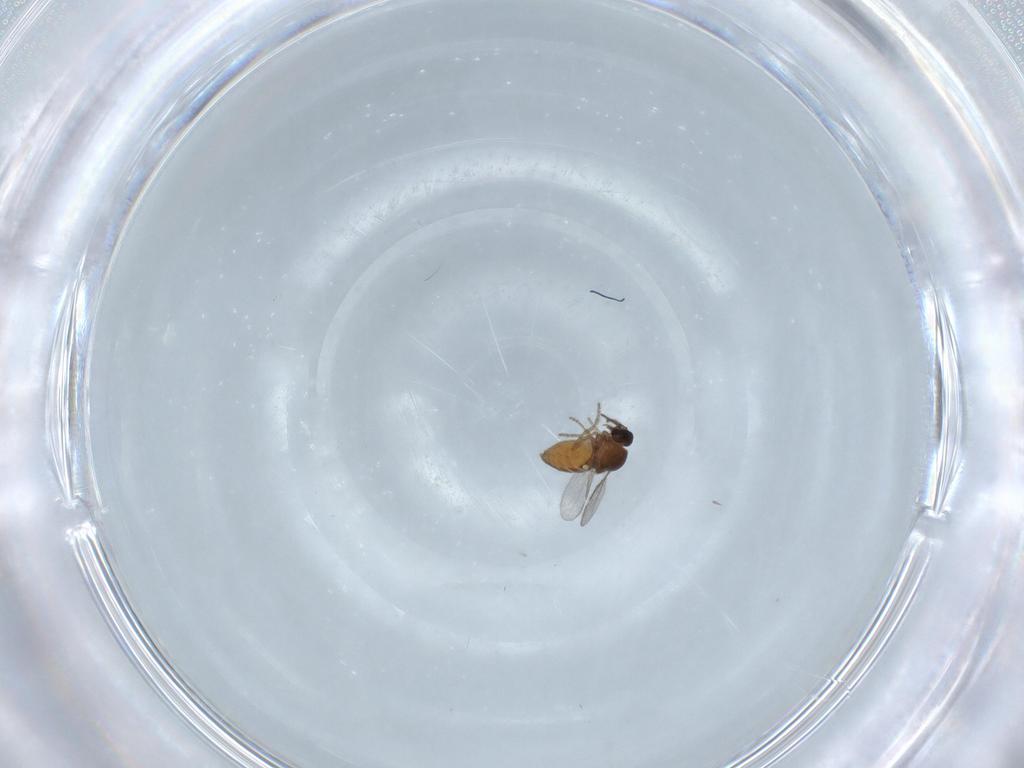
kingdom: Animalia
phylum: Arthropoda
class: Insecta
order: Diptera
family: Ceratopogonidae
